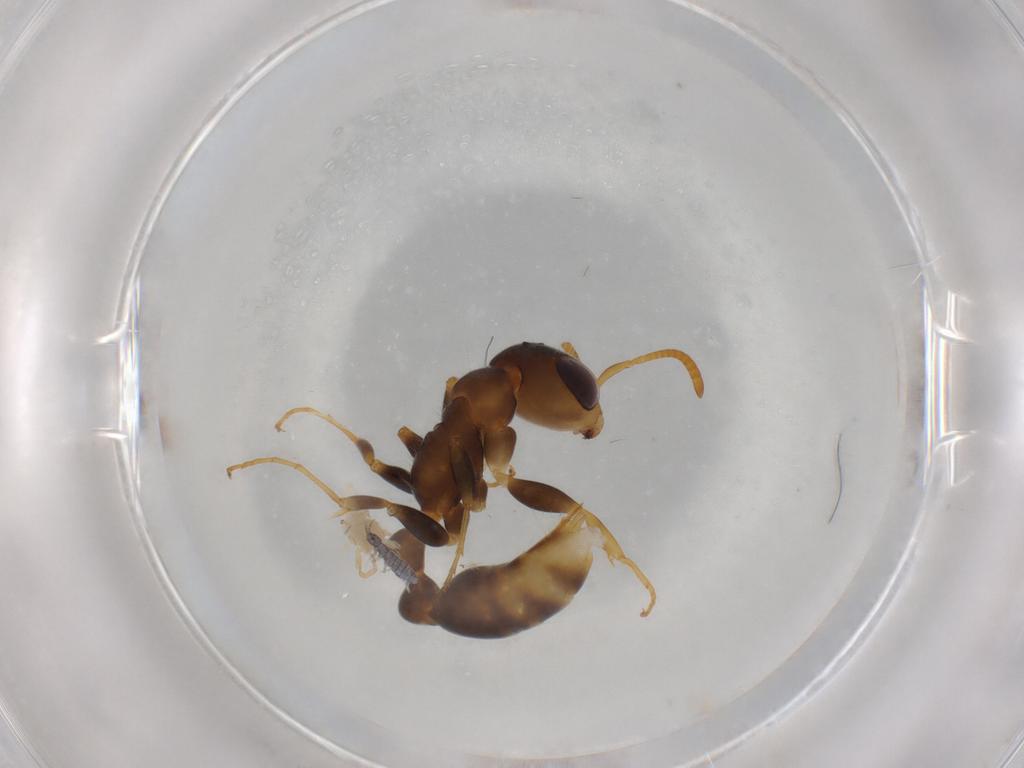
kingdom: Animalia
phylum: Arthropoda
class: Insecta
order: Hymenoptera
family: Formicidae
